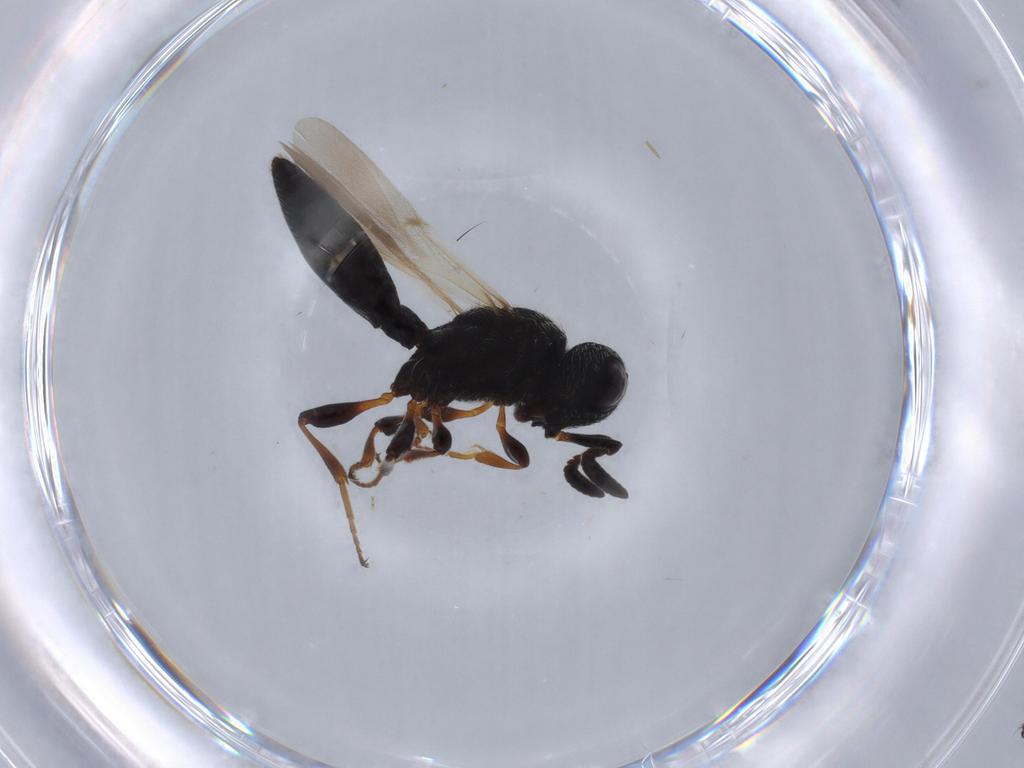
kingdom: Animalia
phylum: Arthropoda
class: Insecta
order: Hymenoptera
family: Scelionidae
